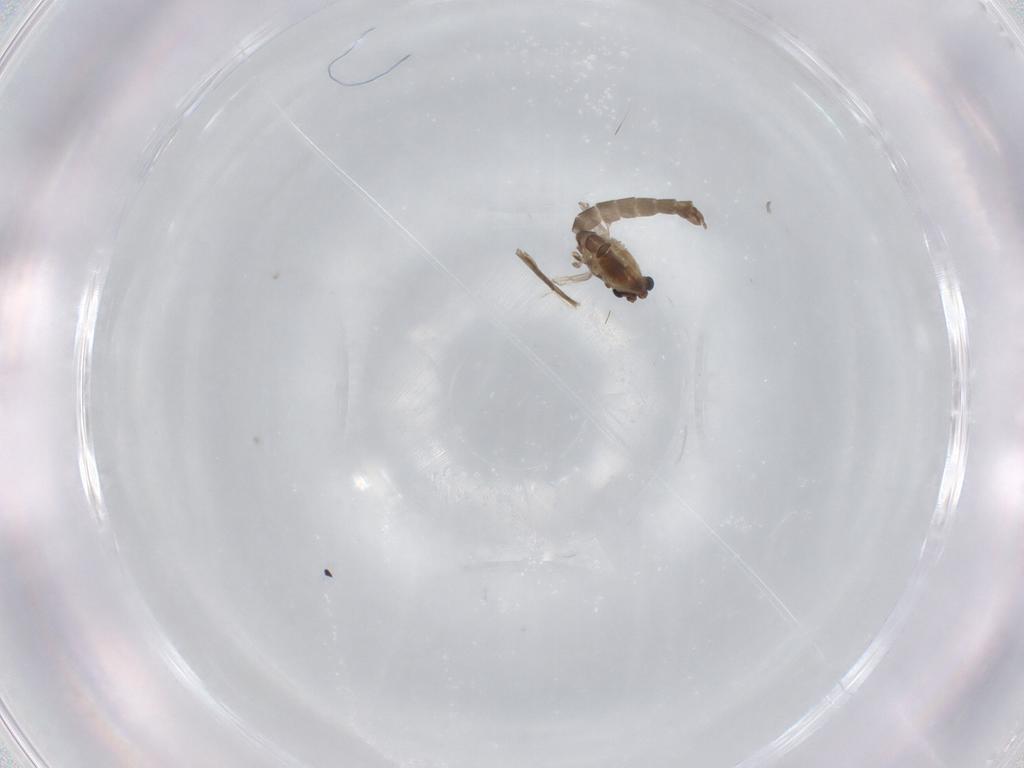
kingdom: Animalia
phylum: Arthropoda
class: Insecta
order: Diptera
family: Chironomidae
